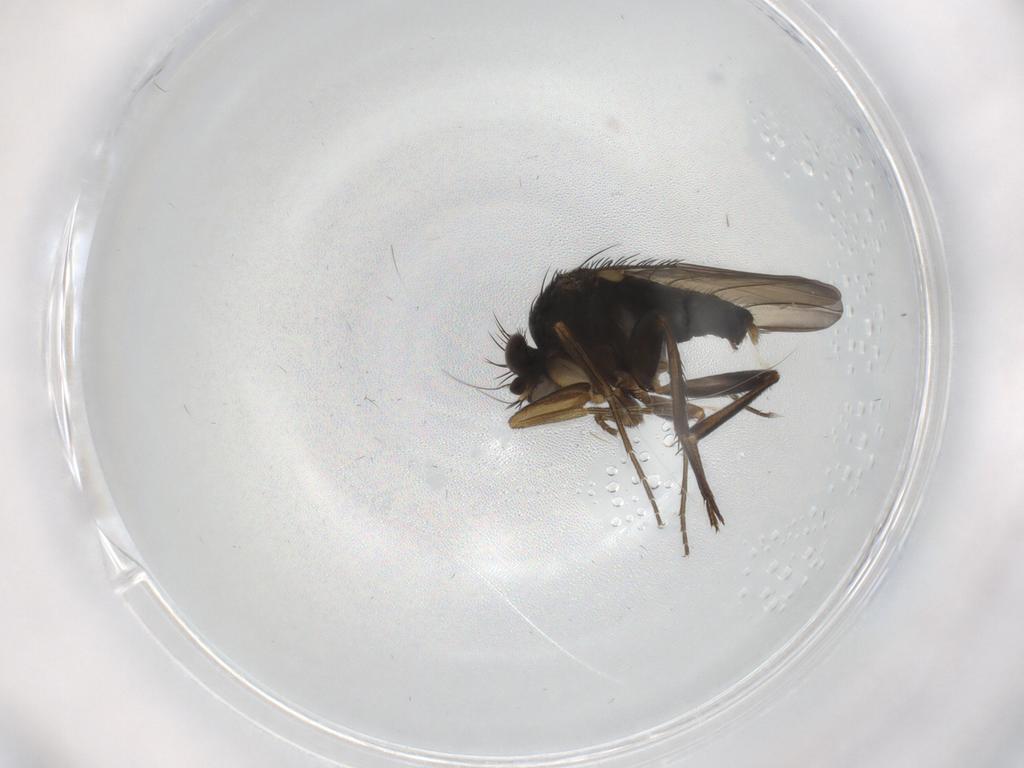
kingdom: Animalia
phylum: Arthropoda
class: Insecta
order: Diptera
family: Phoridae
